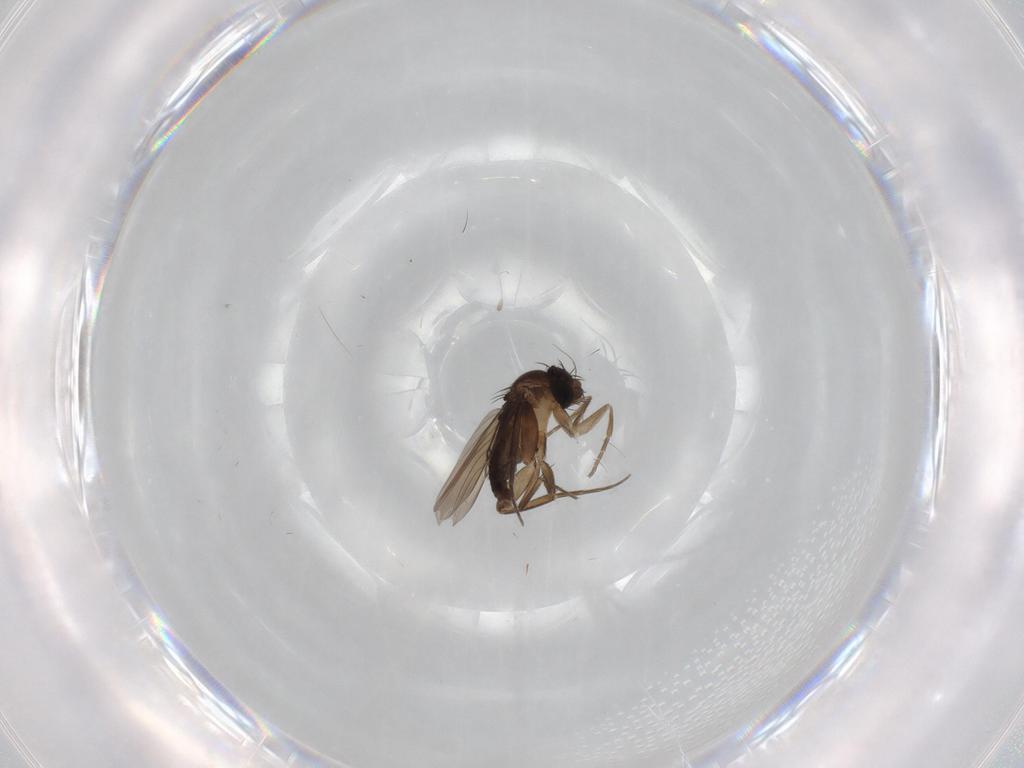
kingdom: Animalia
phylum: Arthropoda
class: Insecta
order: Diptera
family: Phoridae
